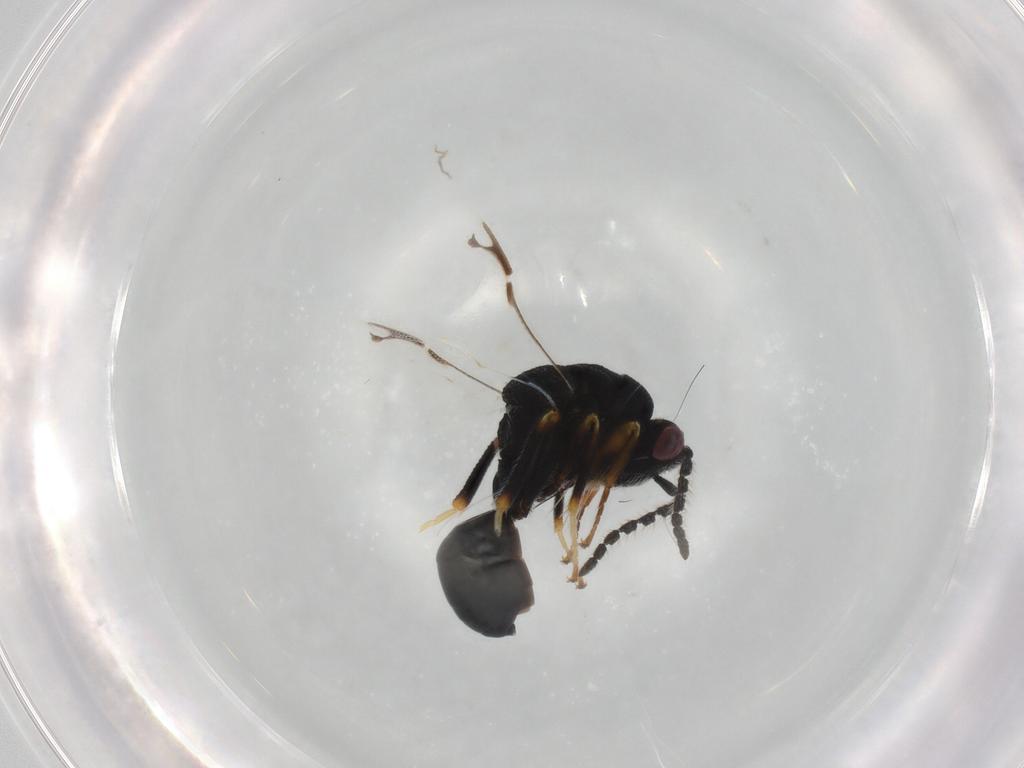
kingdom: Animalia
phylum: Arthropoda
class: Insecta
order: Hymenoptera
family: Eurytomidae
